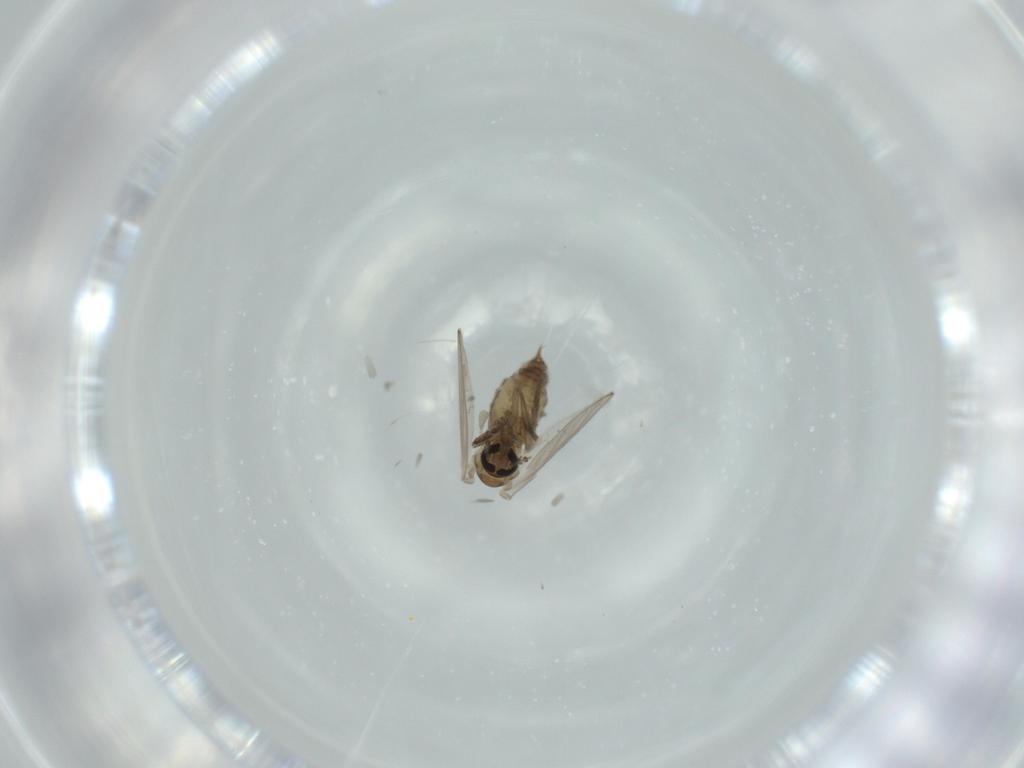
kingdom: Animalia
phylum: Arthropoda
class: Insecta
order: Diptera
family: Psychodidae
